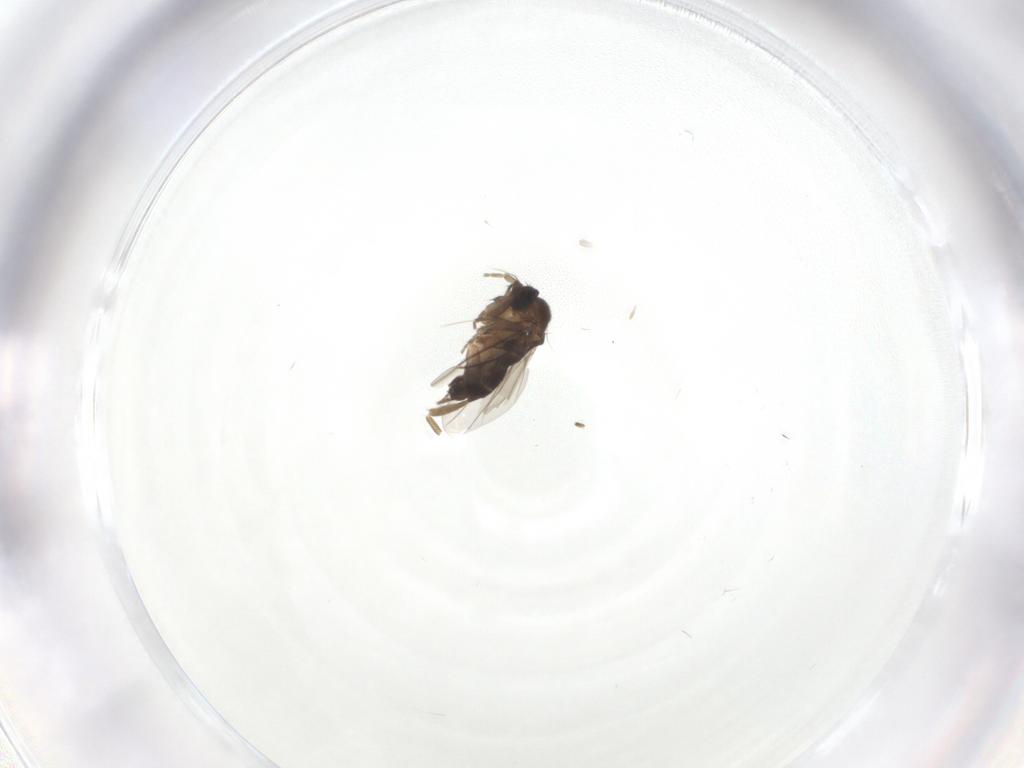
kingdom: Animalia
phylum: Arthropoda
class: Insecta
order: Diptera
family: Phoridae
